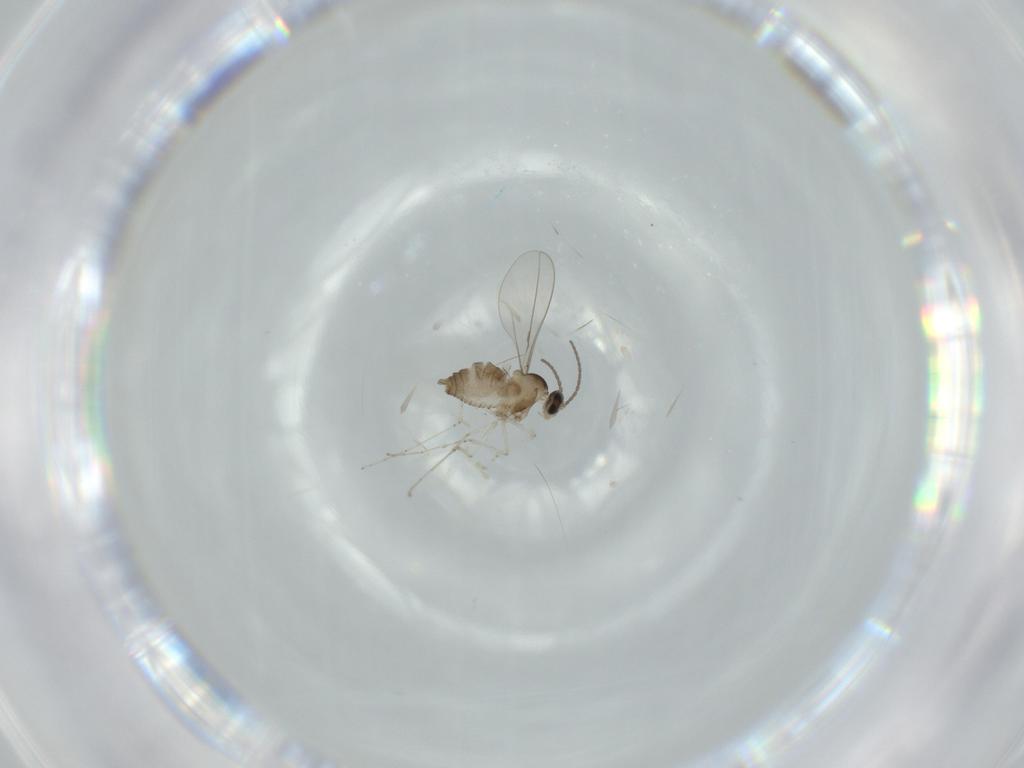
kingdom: Animalia
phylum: Arthropoda
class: Insecta
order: Diptera
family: Cecidomyiidae
